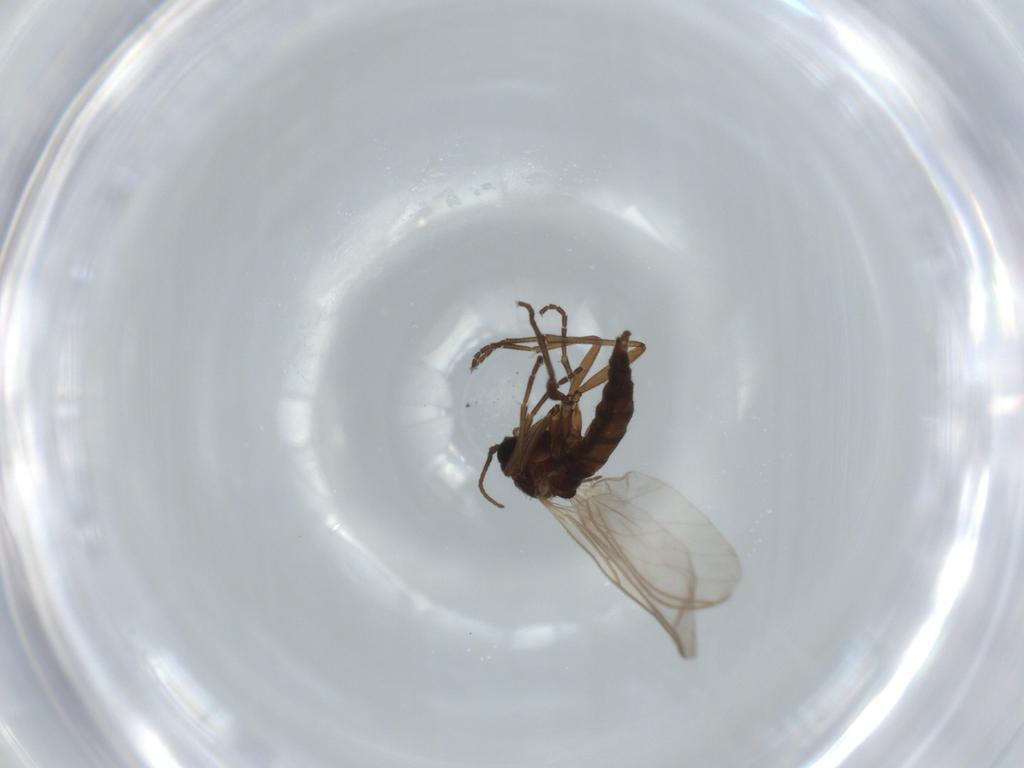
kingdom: Animalia
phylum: Arthropoda
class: Insecta
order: Diptera
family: Sciaridae
